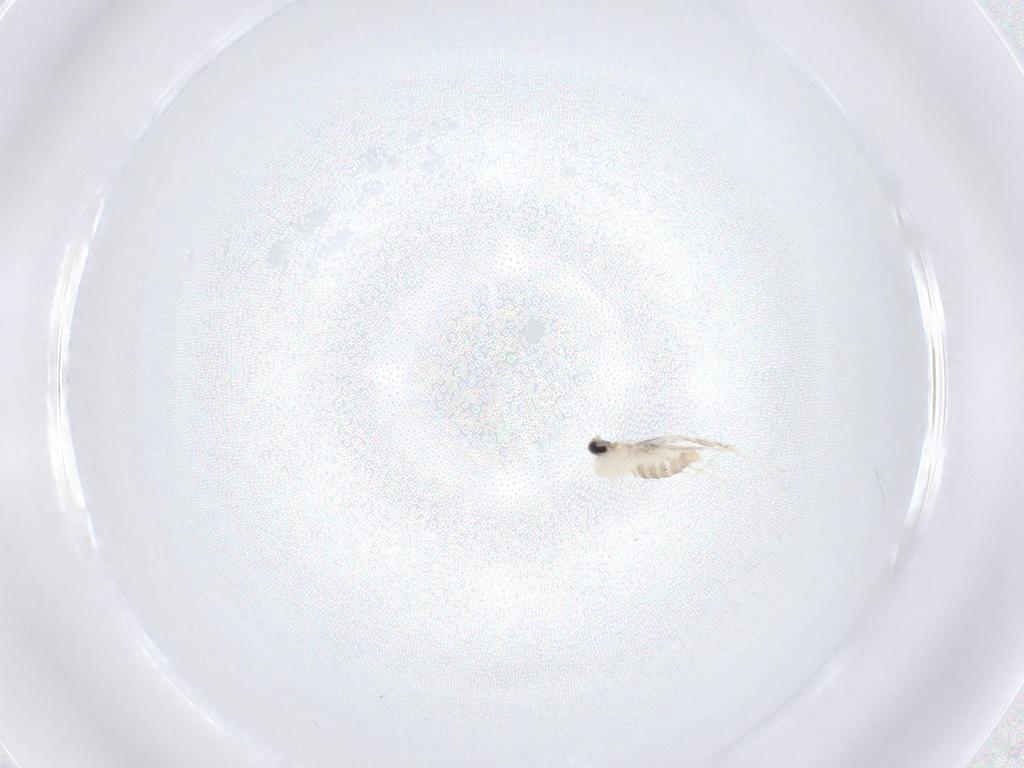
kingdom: Animalia
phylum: Arthropoda
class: Insecta
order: Diptera
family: Cecidomyiidae
